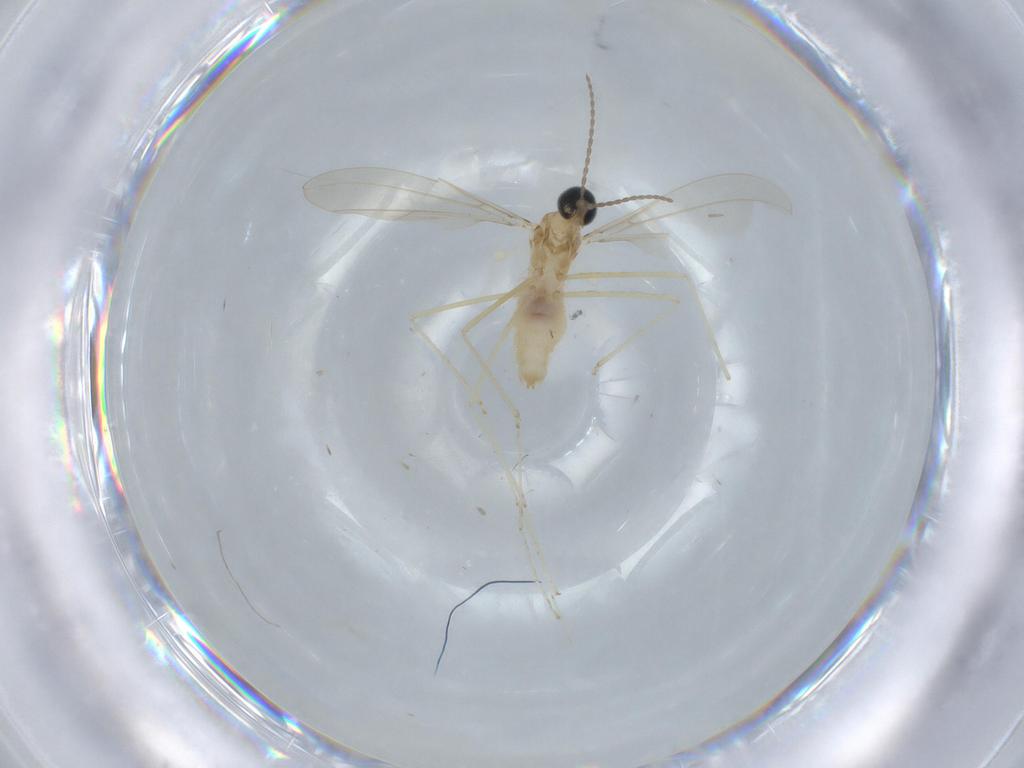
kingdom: Animalia
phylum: Arthropoda
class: Insecta
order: Diptera
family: Cecidomyiidae
